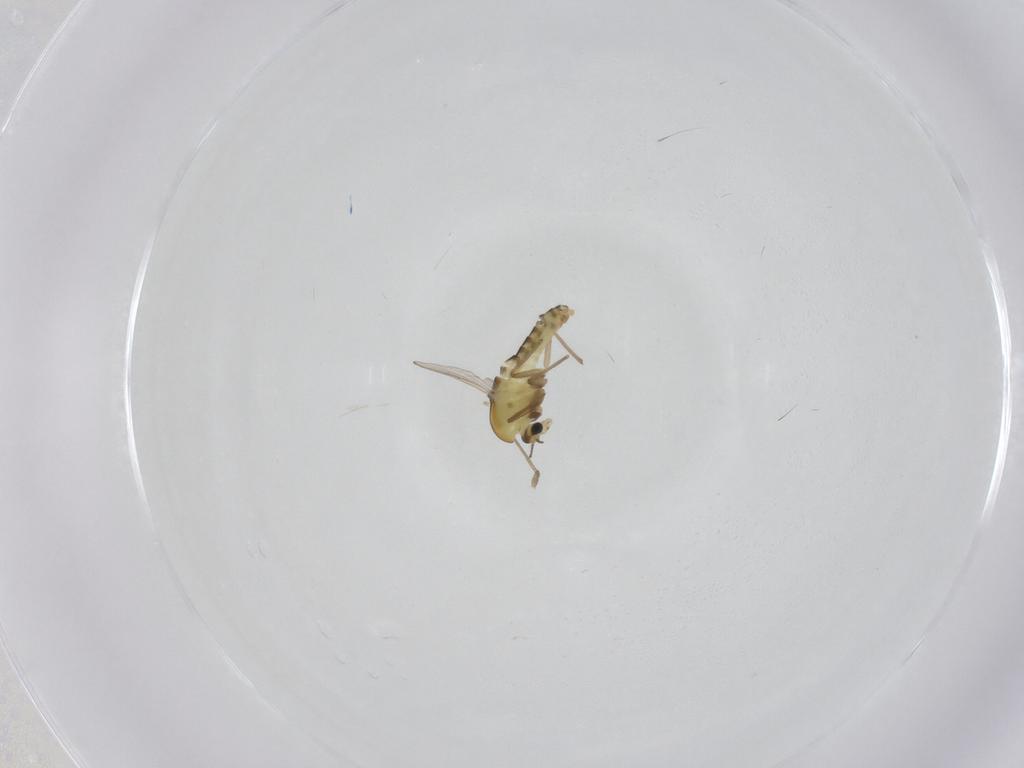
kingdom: Animalia
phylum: Arthropoda
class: Insecta
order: Diptera
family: Chironomidae
